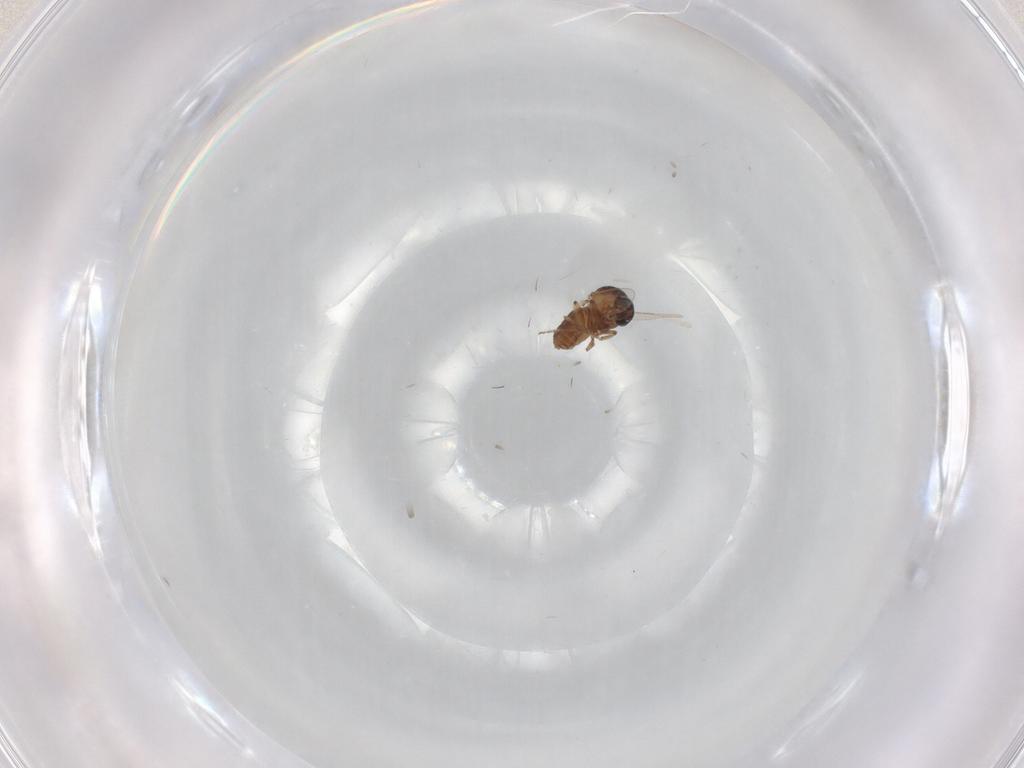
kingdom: Animalia
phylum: Arthropoda
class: Insecta
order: Diptera
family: Ceratopogonidae
